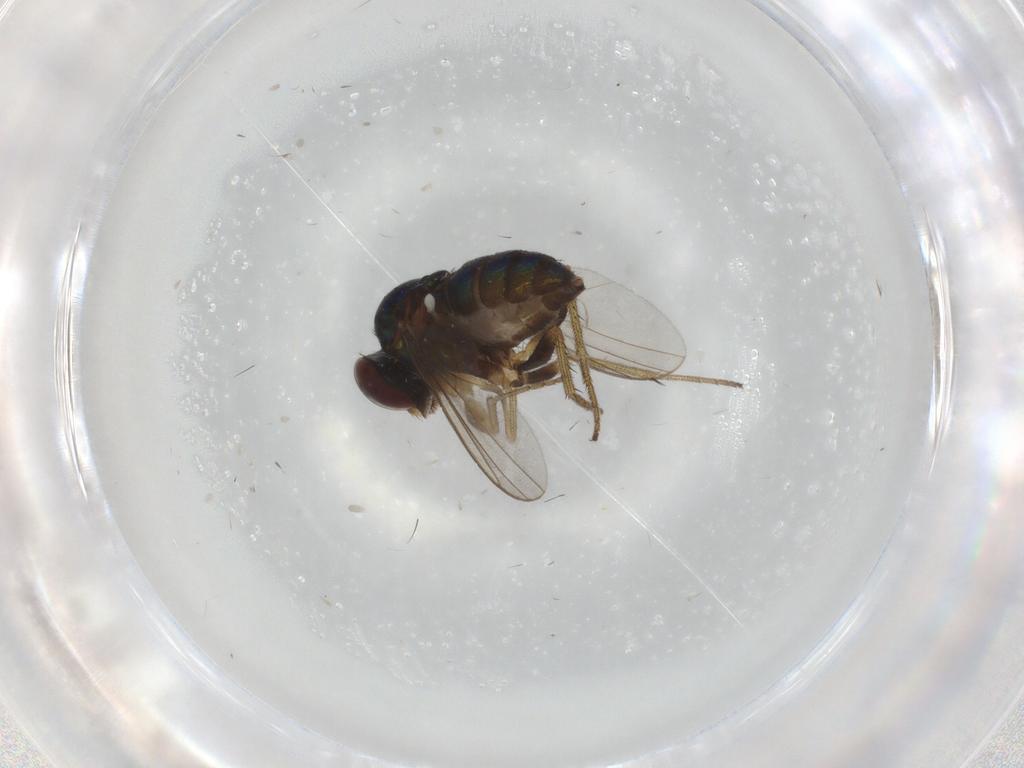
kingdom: Animalia
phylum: Arthropoda
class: Insecta
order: Diptera
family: Dolichopodidae
